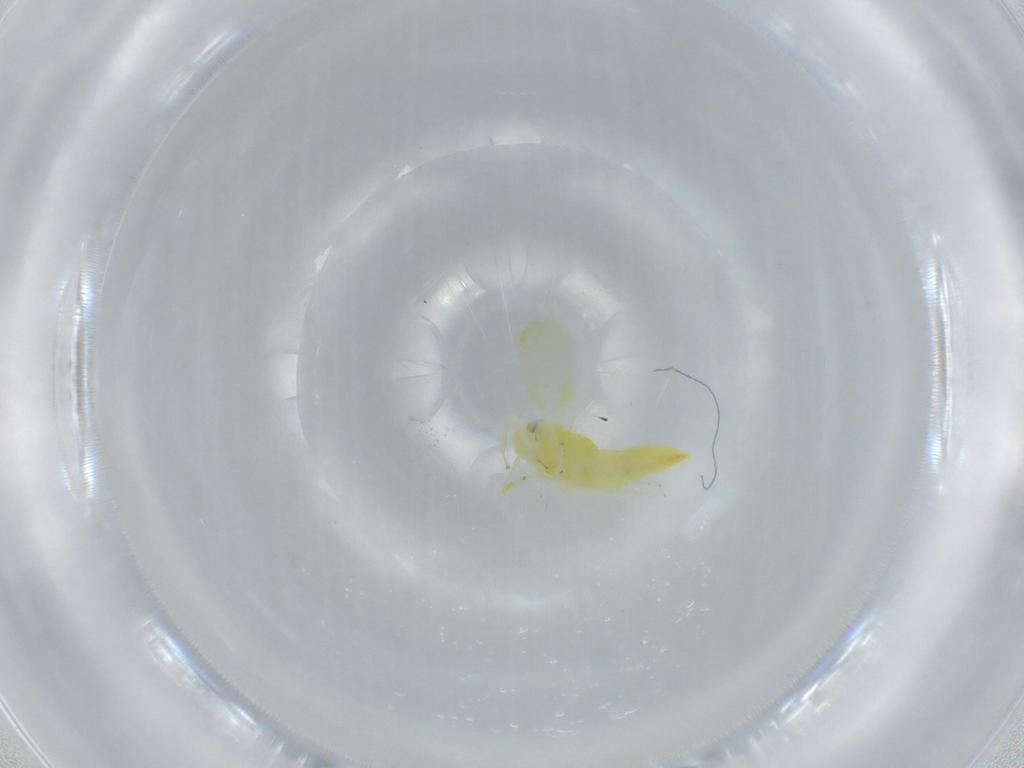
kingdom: Animalia
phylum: Arthropoda
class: Insecta
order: Hemiptera
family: Cicadellidae
